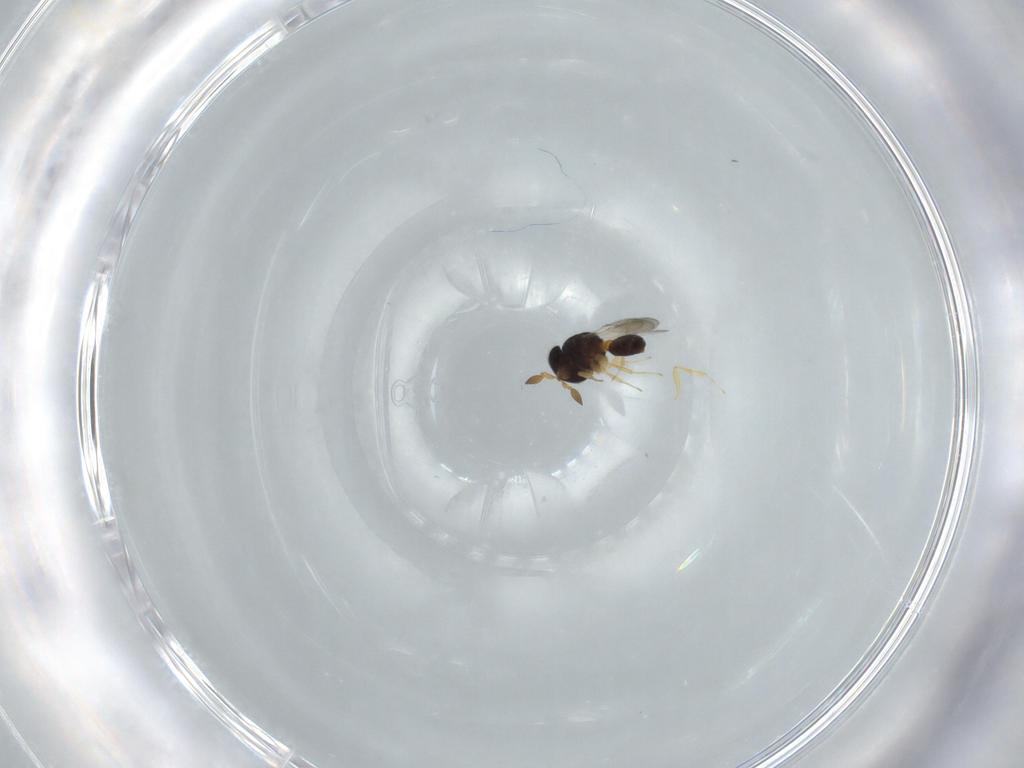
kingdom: Animalia
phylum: Arthropoda
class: Insecta
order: Hymenoptera
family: Scelionidae
